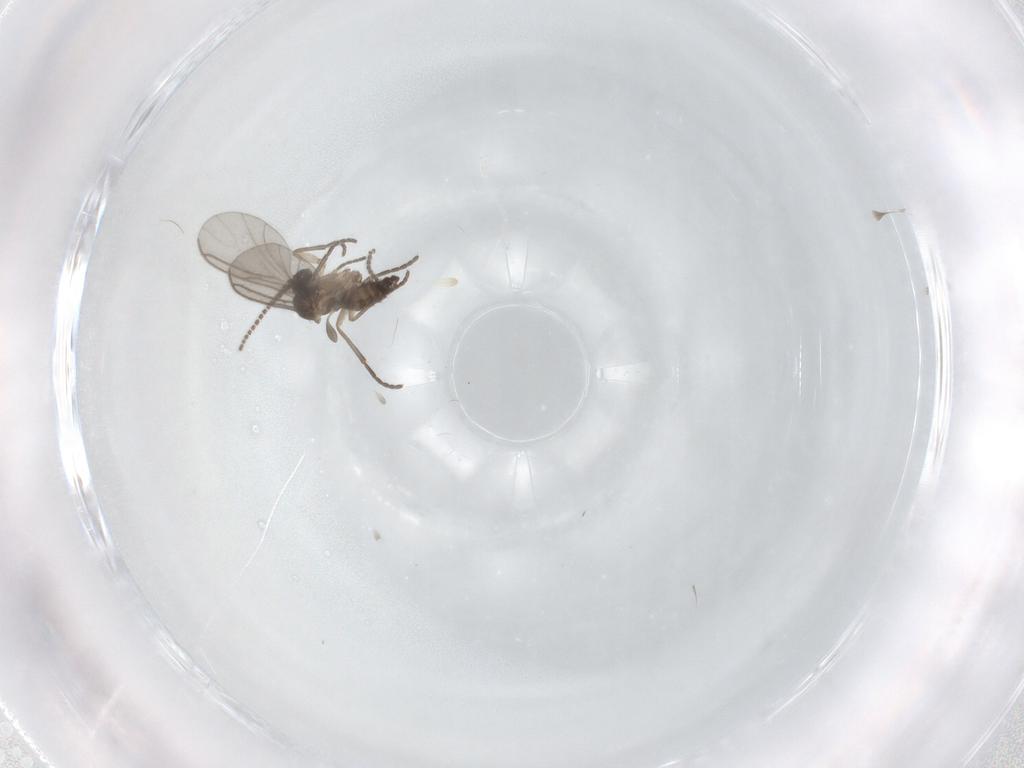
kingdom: Animalia
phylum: Arthropoda
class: Insecta
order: Diptera
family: Sciaridae
